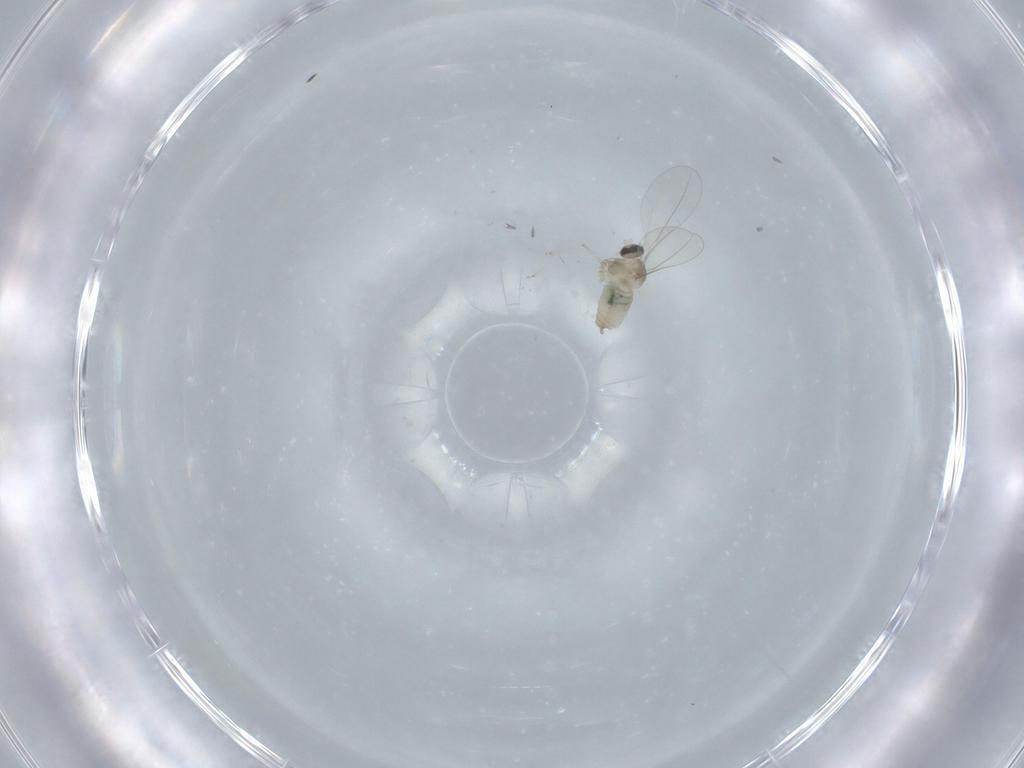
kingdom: Animalia
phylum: Arthropoda
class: Insecta
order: Diptera
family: Cecidomyiidae
